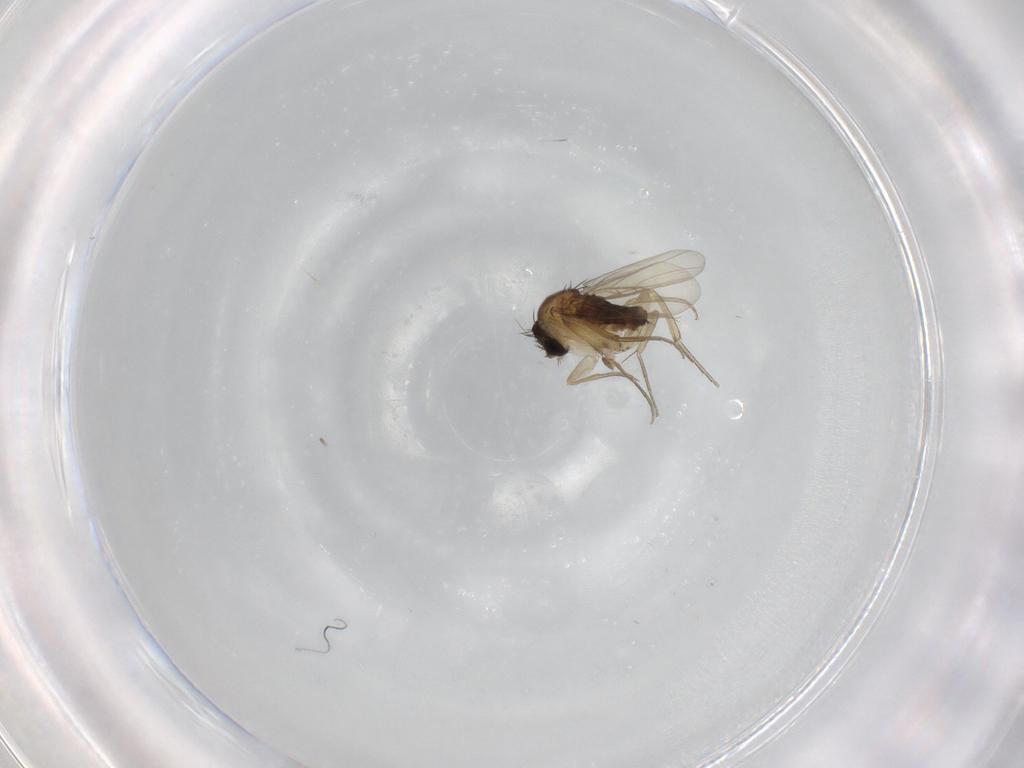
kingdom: Animalia
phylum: Arthropoda
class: Insecta
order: Diptera
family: Phoridae
